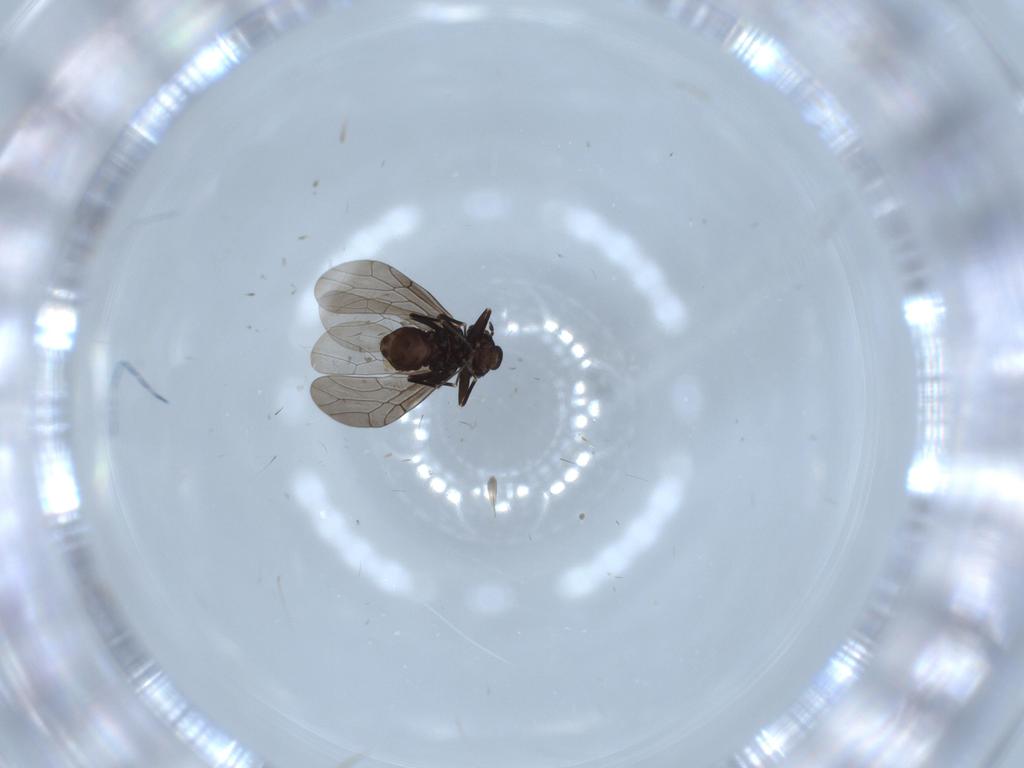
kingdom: Animalia
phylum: Arthropoda
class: Insecta
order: Psocodea
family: Lepidopsocidae
